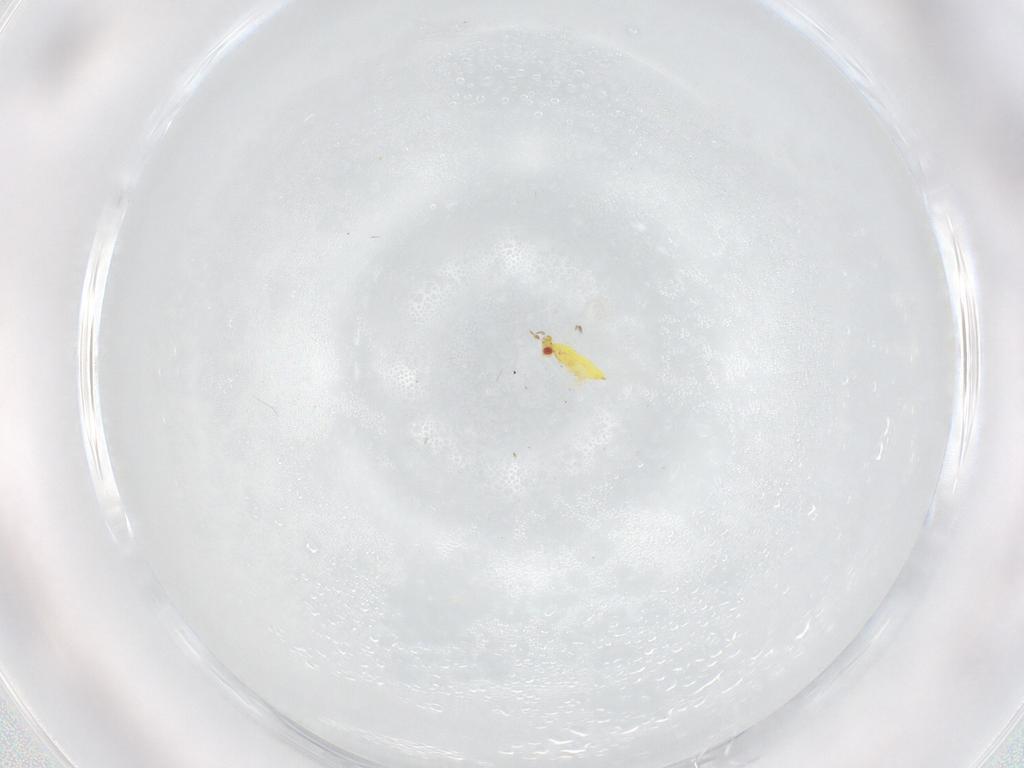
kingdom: Animalia
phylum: Arthropoda
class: Insecta
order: Hymenoptera
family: Trichogrammatidae
